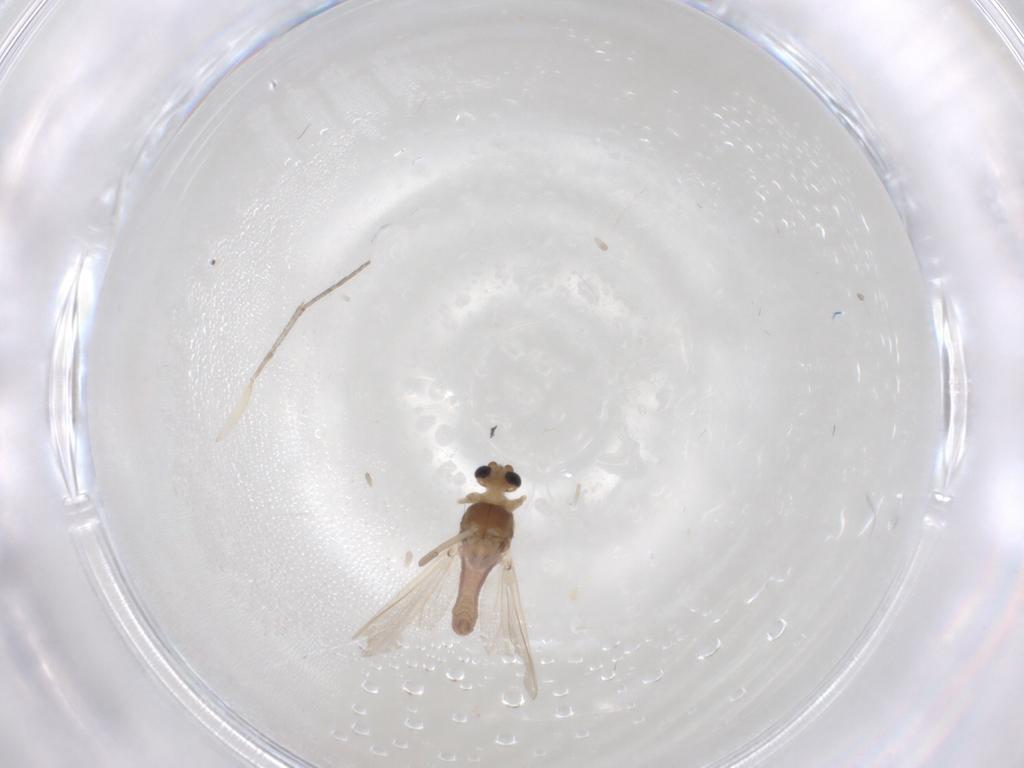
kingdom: Animalia
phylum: Arthropoda
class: Insecta
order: Diptera
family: Chironomidae
